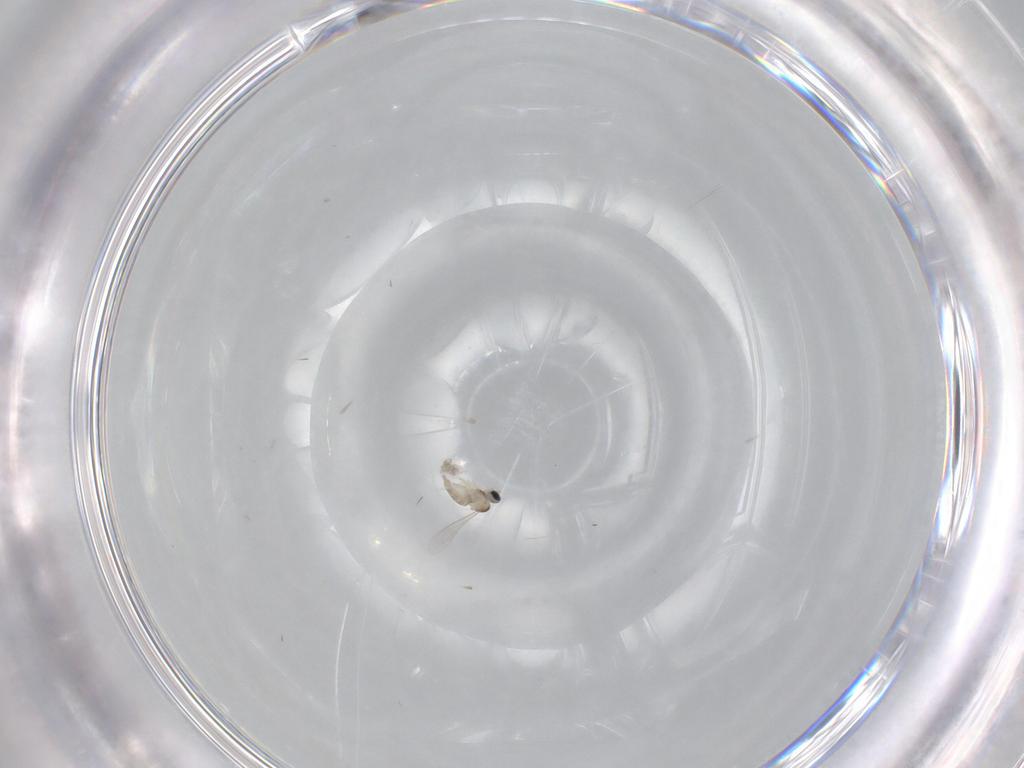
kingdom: Animalia
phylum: Arthropoda
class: Insecta
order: Diptera
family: Cecidomyiidae
